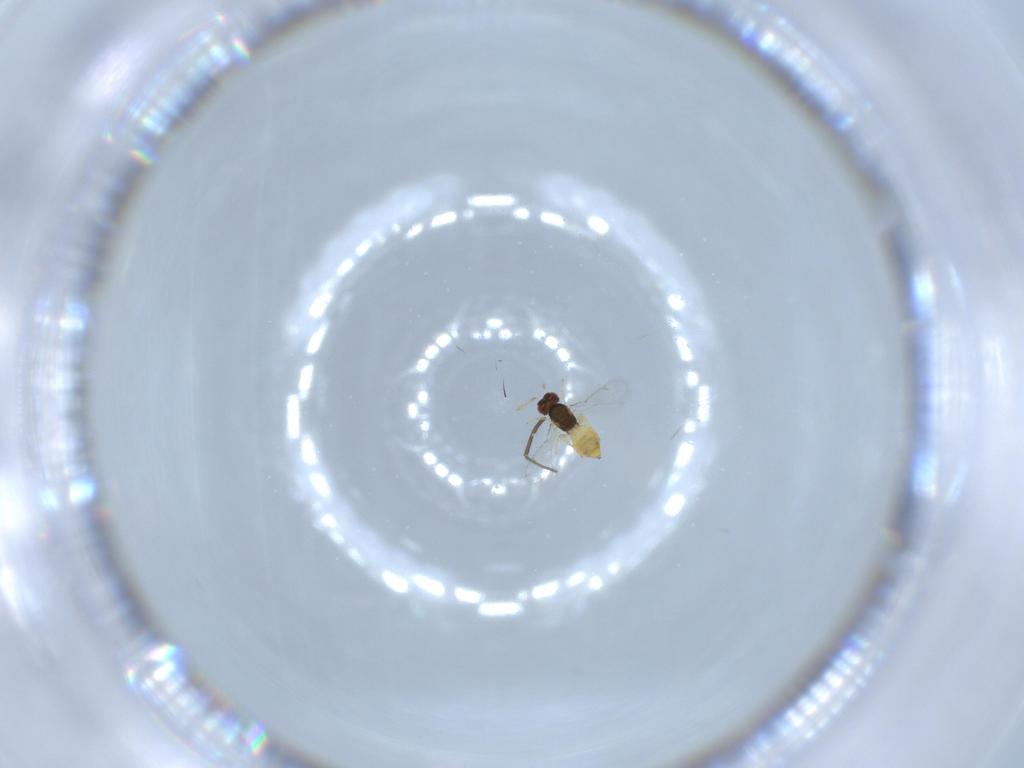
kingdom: Animalia
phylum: Arthropoda
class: Insecta
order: Hymenoptera
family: Eulophidae
